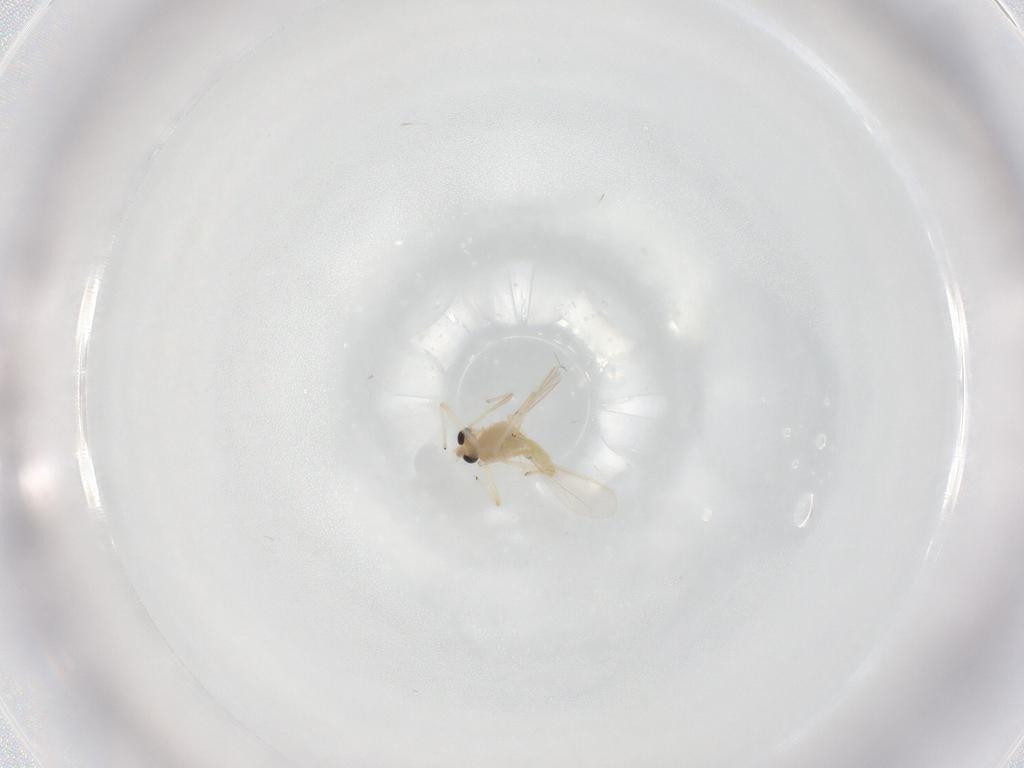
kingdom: Animalia
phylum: Arthropoda
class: Insecta
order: Diptera
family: Chironomidae
